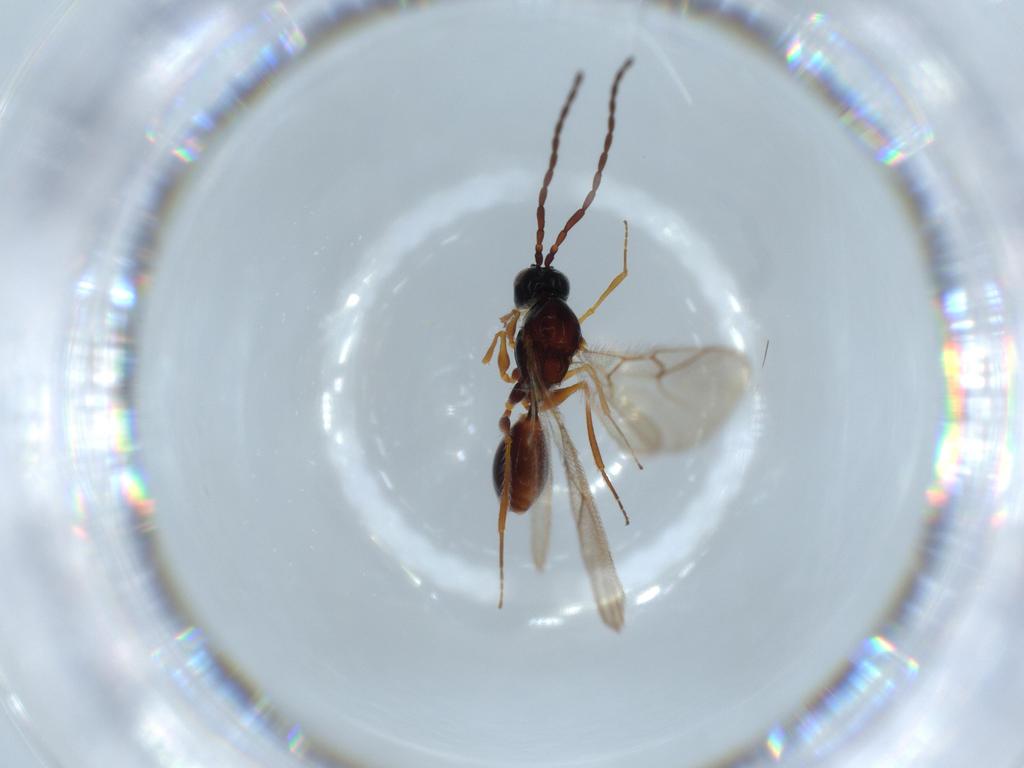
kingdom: Animalia
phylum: Arthropoda
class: Insecta
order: Hymenoptera
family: Figitidae
